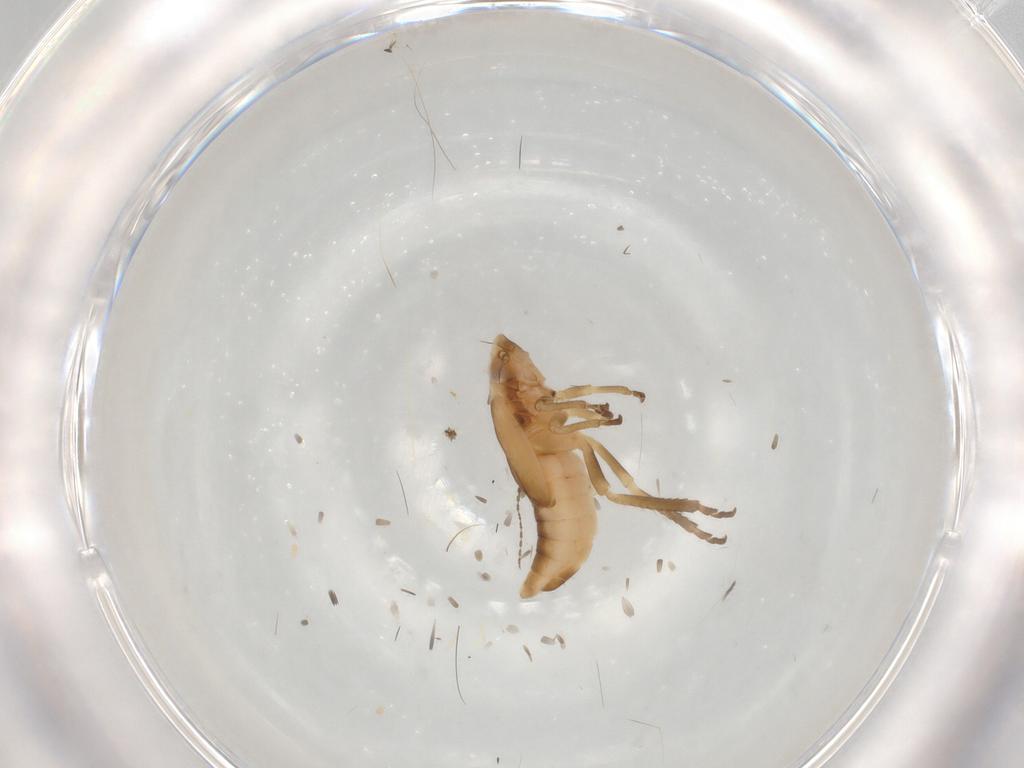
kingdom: Animalia
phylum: Arthropoda
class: Insecta
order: Hemiptera
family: Cicadellidae
